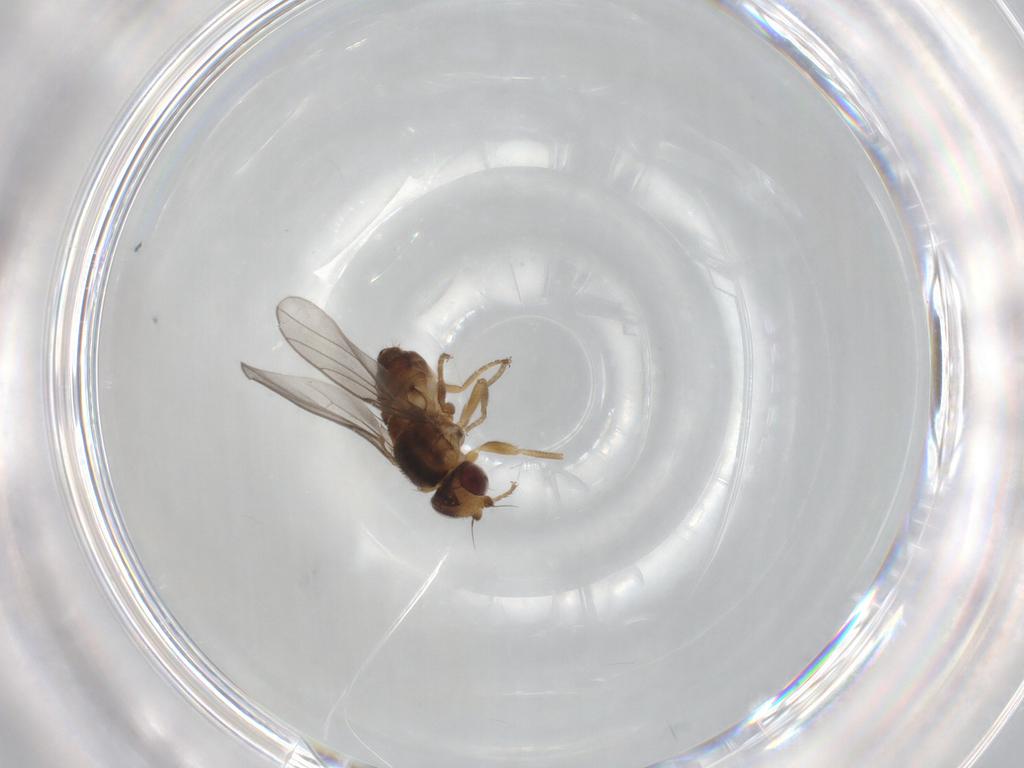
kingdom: Animalia
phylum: Arthropoda
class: Insecta
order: Diptera
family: Chloropidae
